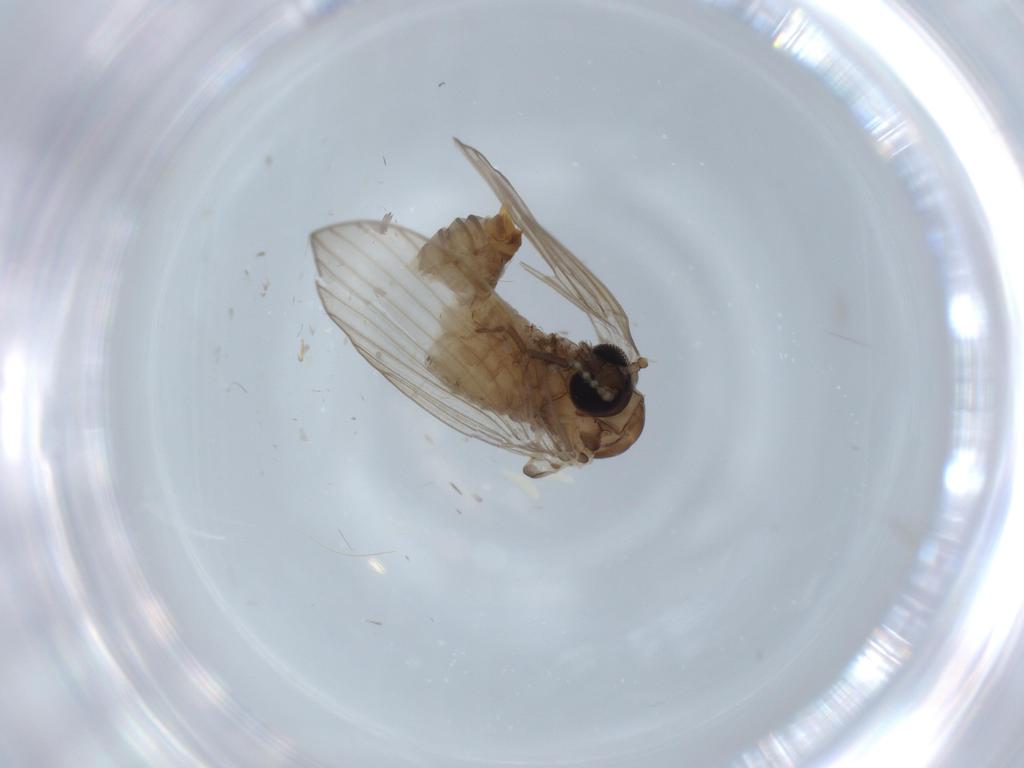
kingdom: Animalia
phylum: Arthropoda
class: Insecta
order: Diptera
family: Psychodidae
